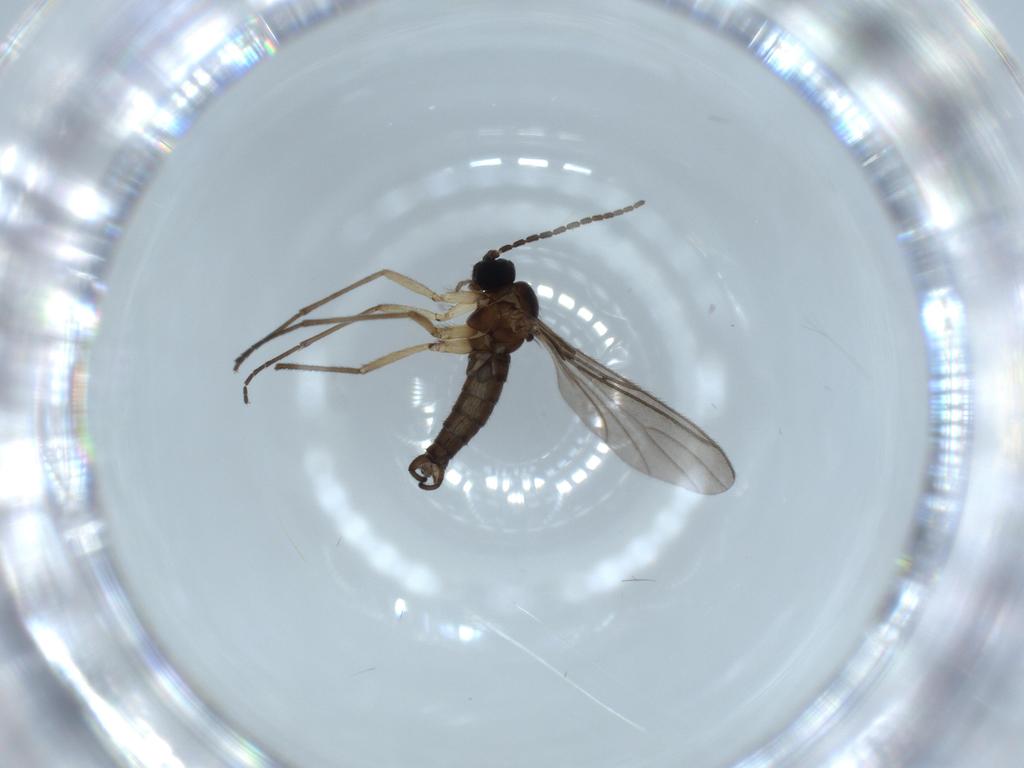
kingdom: Animalia
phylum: Arthropoda
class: Insecta
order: Diptera
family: Sciaridae
